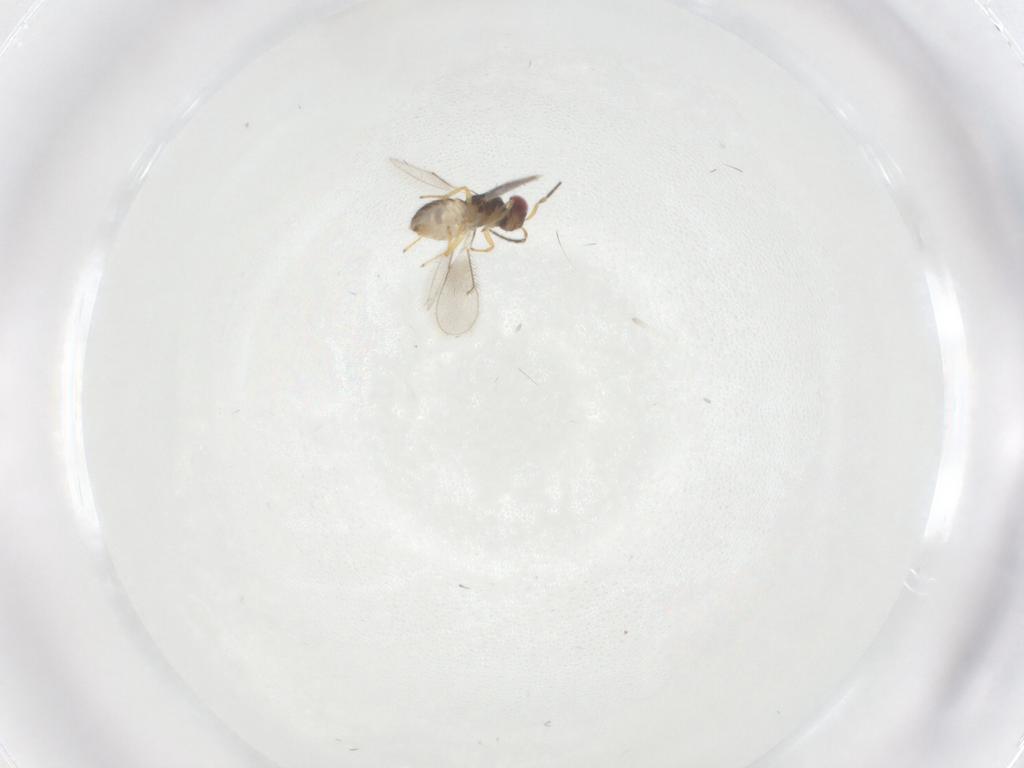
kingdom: Animalia
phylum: Arthropoda
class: Insecta
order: Hymenoptera
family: Eulophidae
